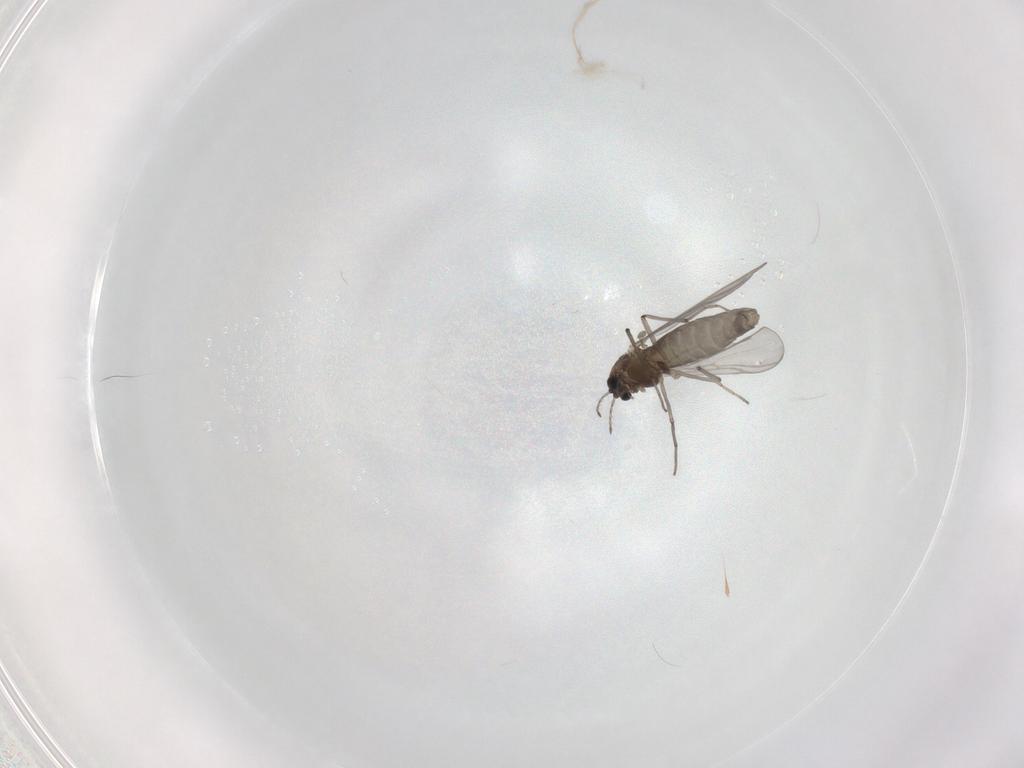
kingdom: Animalia
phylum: Arthropoda
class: Insecta
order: Diptera
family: Chironomidae
